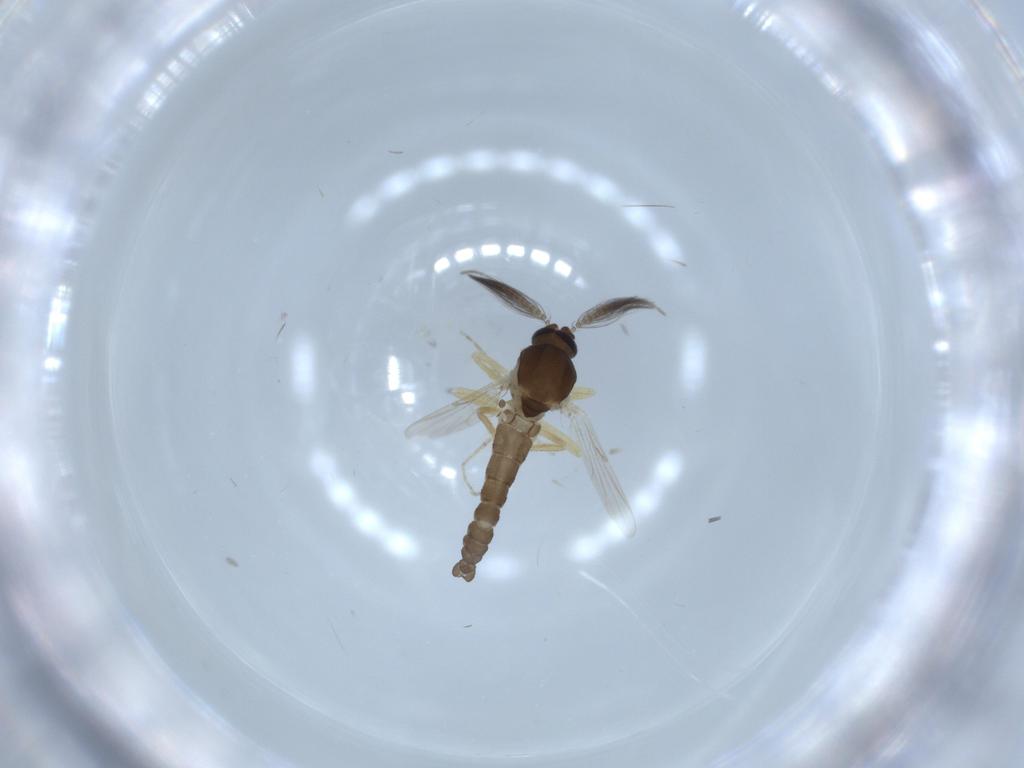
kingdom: Animalia
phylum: Arthropoda
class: Insecta
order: Diptera
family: Ceratopogonidae
